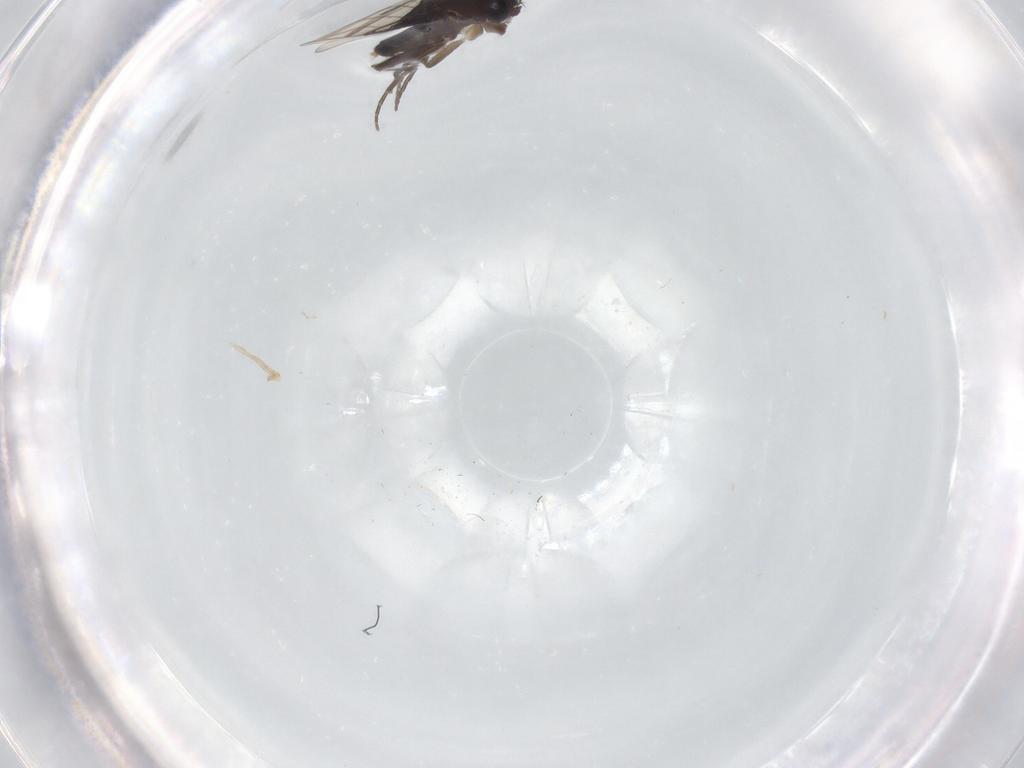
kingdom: Animalia
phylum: Arthropoda
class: Insecta
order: Diptera
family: Phoridae
